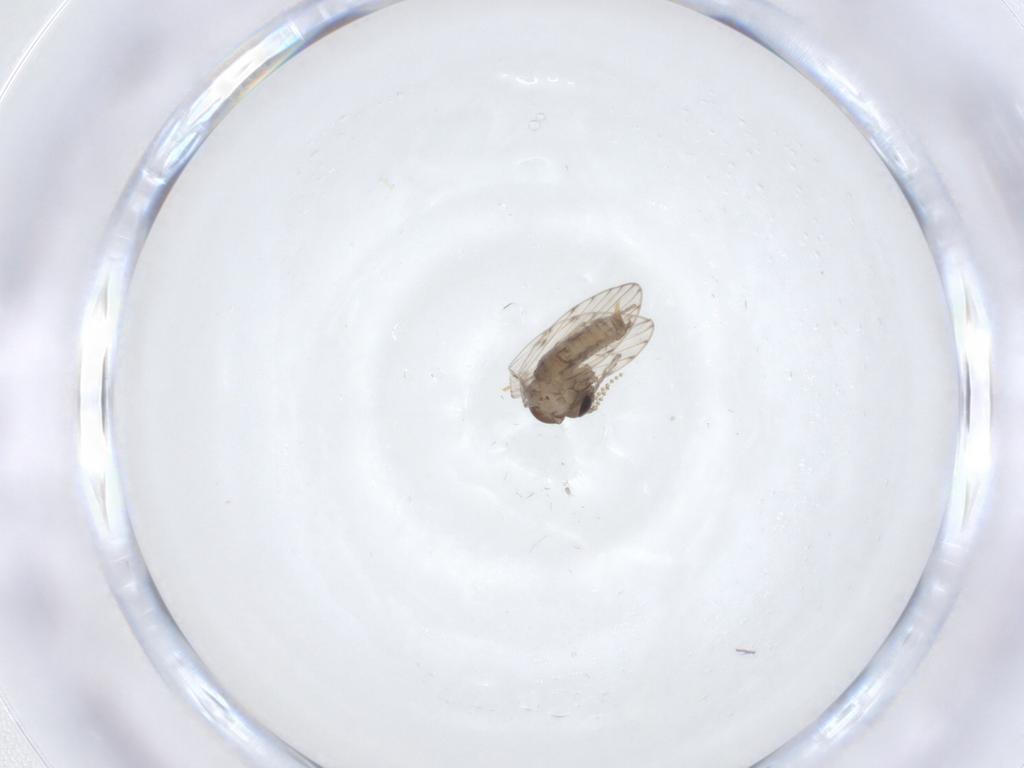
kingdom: Animalia
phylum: Arthropoda
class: Insecta
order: Diptera
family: Psychodidae
